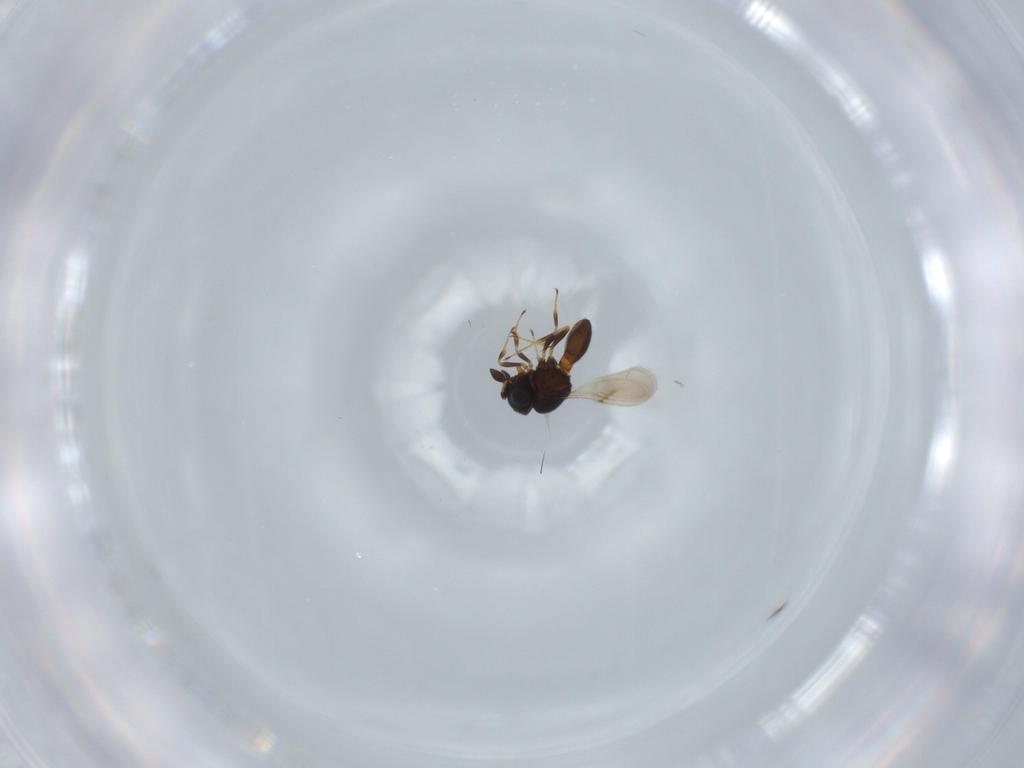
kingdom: Animalia
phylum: Arthropoda
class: Insecta
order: Hymenoptera
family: Scelionidae
